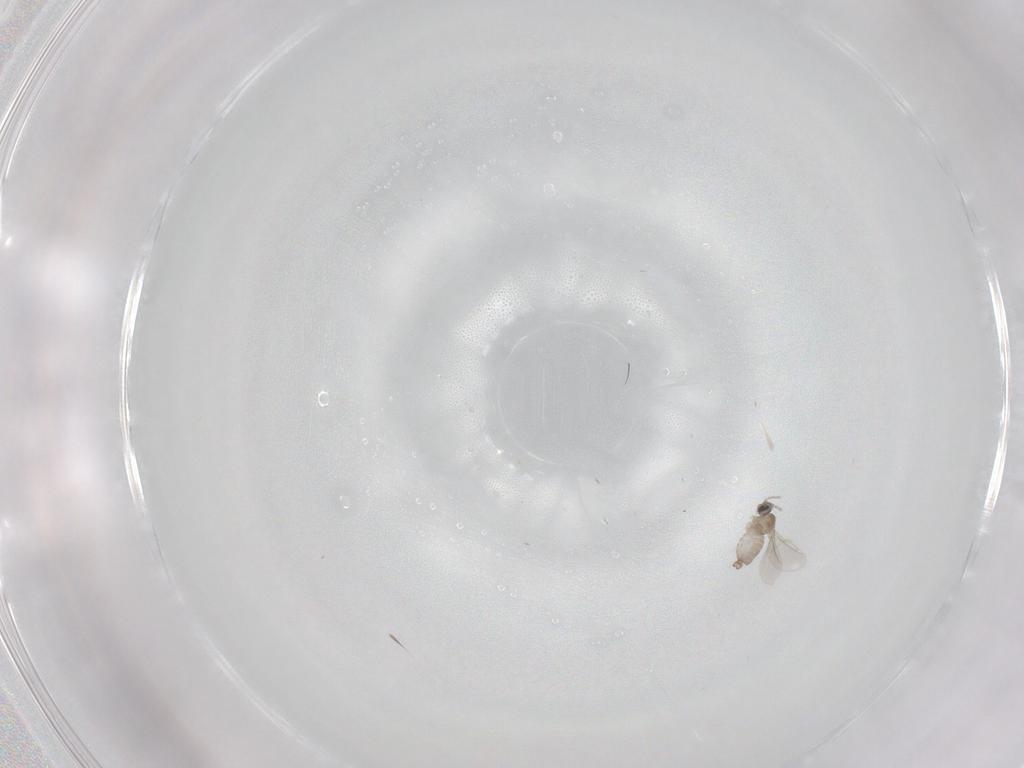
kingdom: Animalia
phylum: Arthropoda
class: Insecta
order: Diptera
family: Cecidomyiidae
